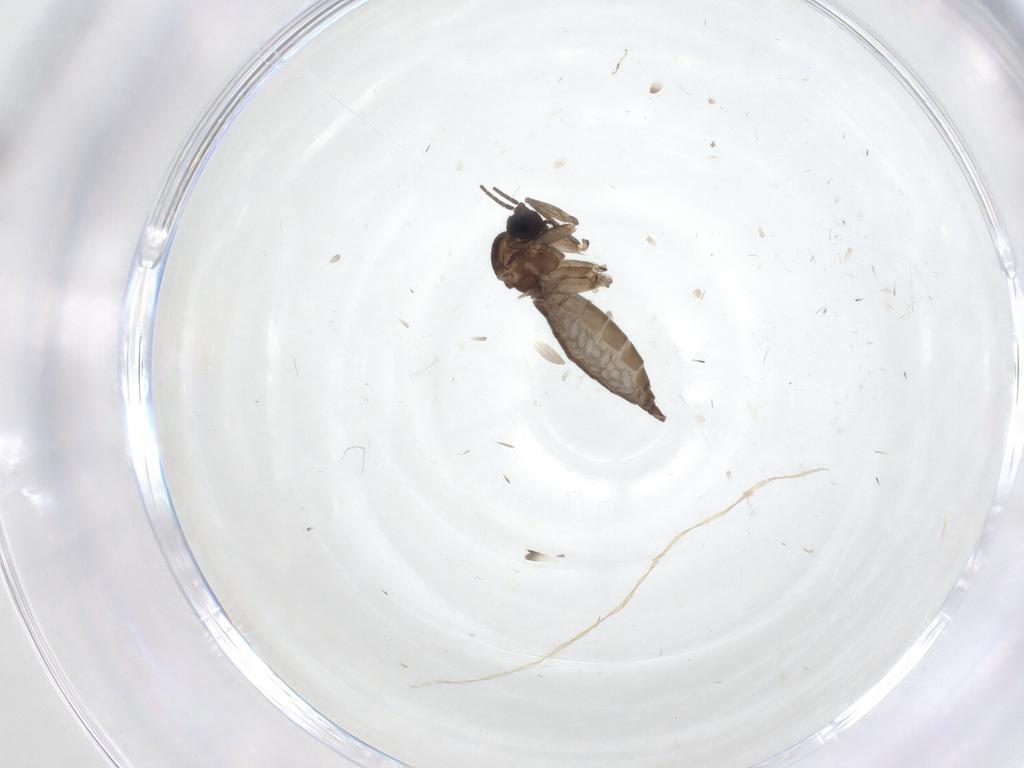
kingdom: Animalia
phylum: Arthropoda
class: Insecta
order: Diptera
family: Sciaridae
